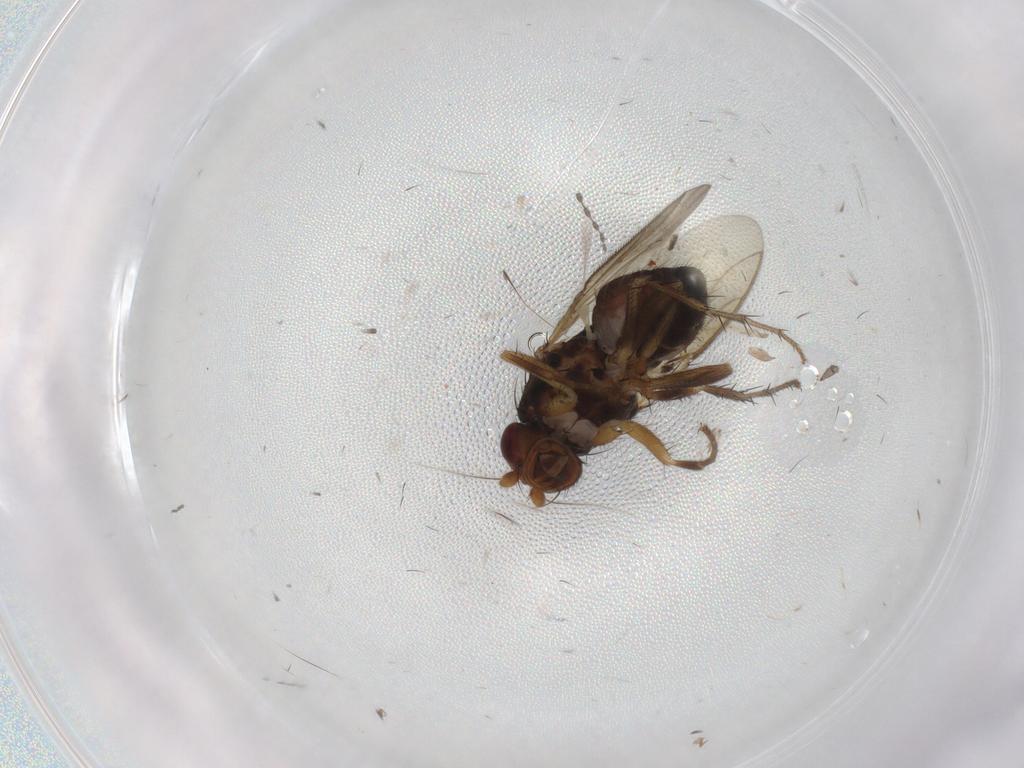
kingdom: Animalia
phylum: Arthropoda
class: Insecta
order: Diptera
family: Sphaeroceridae
